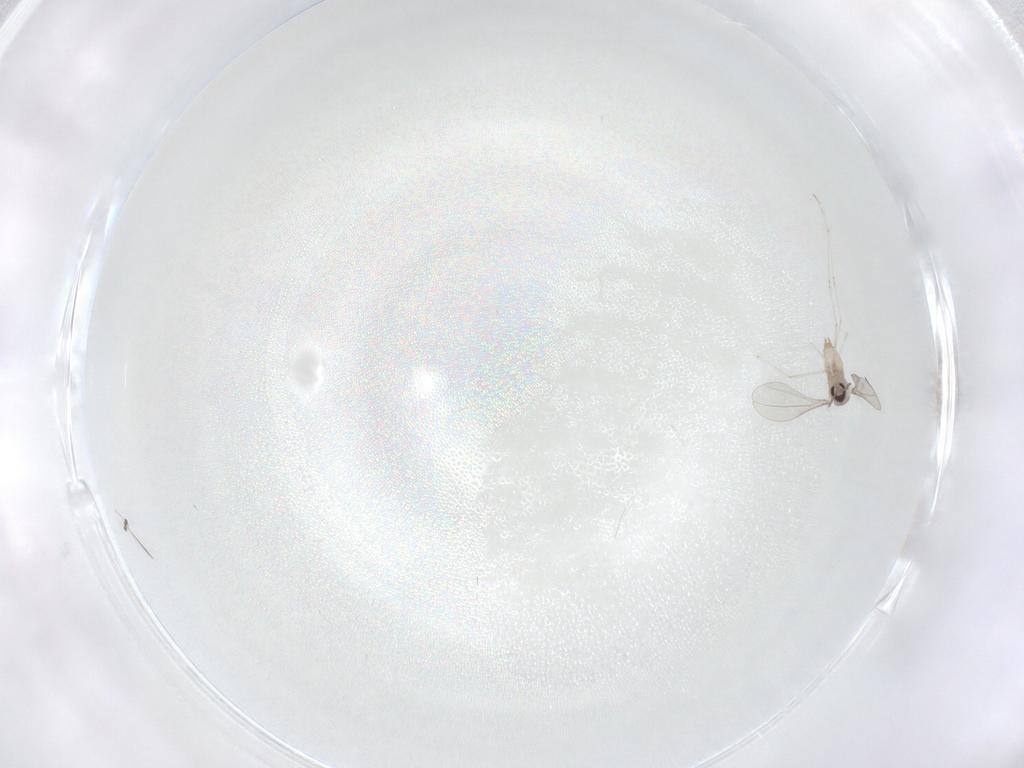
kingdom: Animalia
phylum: Arthropoda
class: Insecta
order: Diptera
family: Cecidomyiidae
